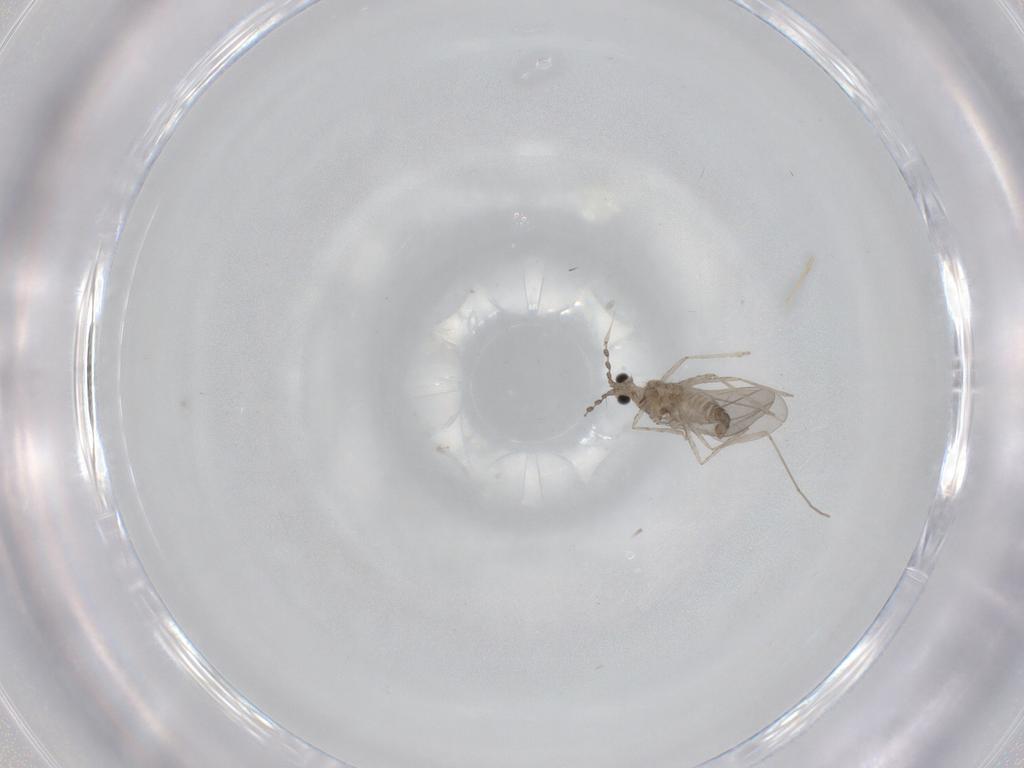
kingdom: Animalia
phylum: Arthropoda
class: Insecta
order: Diptera
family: Cecidomyiidae
